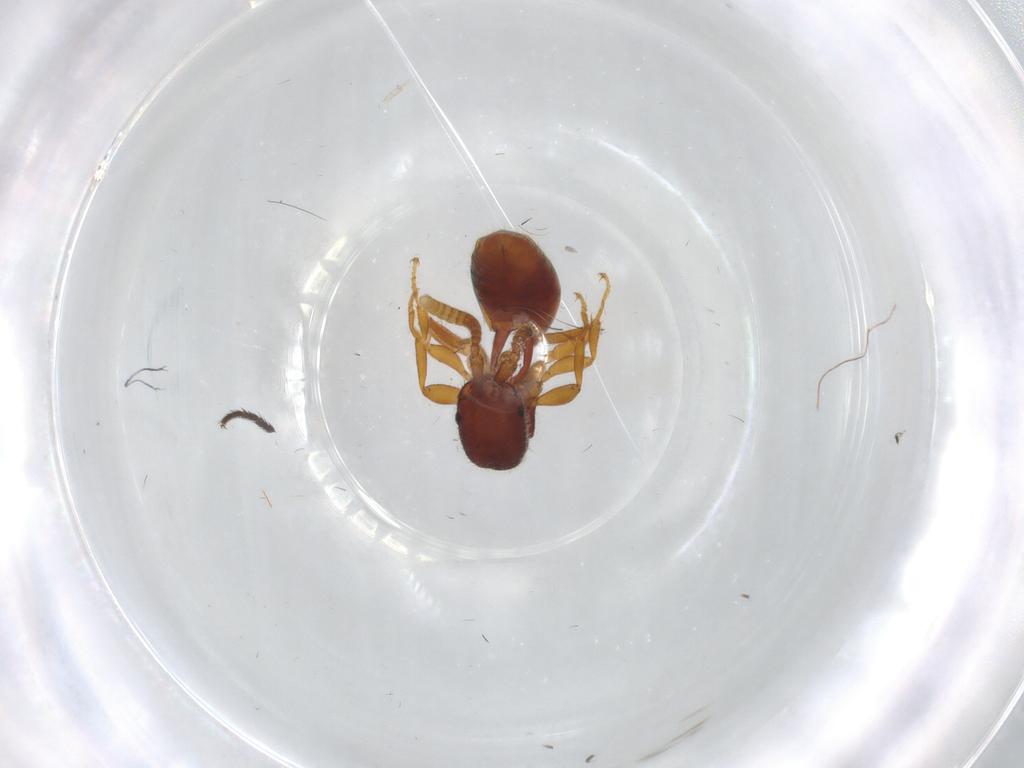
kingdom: Animalia
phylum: Arthropoda
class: Insecta
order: Hymenoptera
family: Bethylidae
